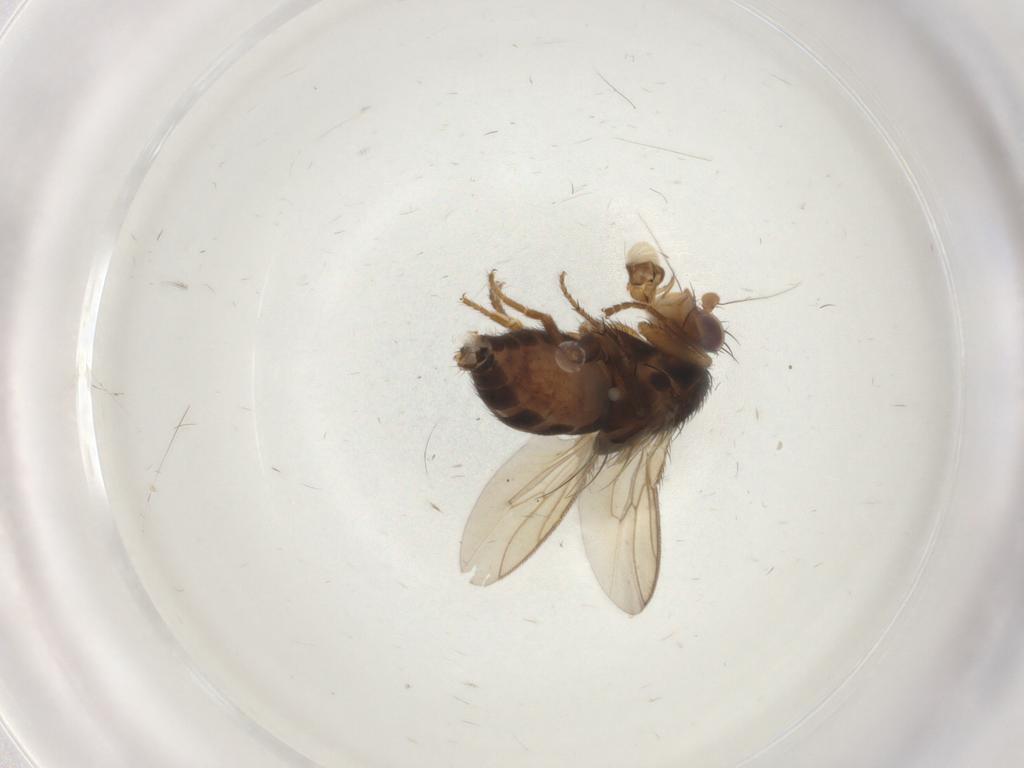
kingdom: Animalia
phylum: Arthropoda
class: Insecta
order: Diptera
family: Sphaeroceridae
